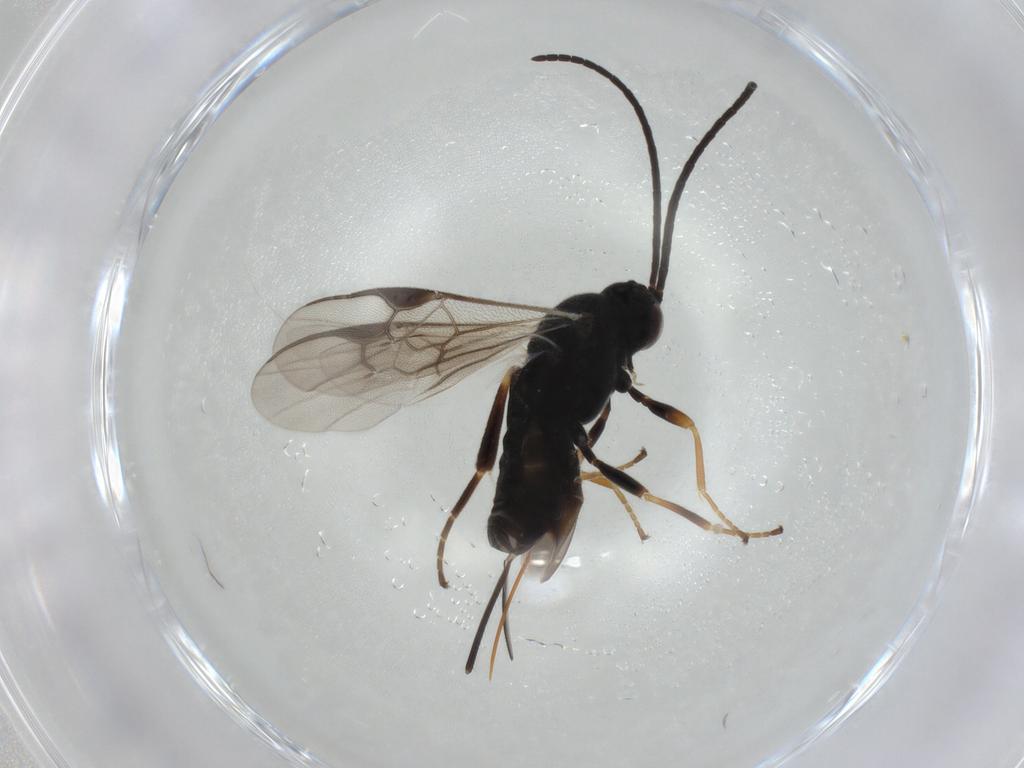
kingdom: Animalia
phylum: Arthropoda
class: Insecta
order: Hymenoptera
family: Braconidae
